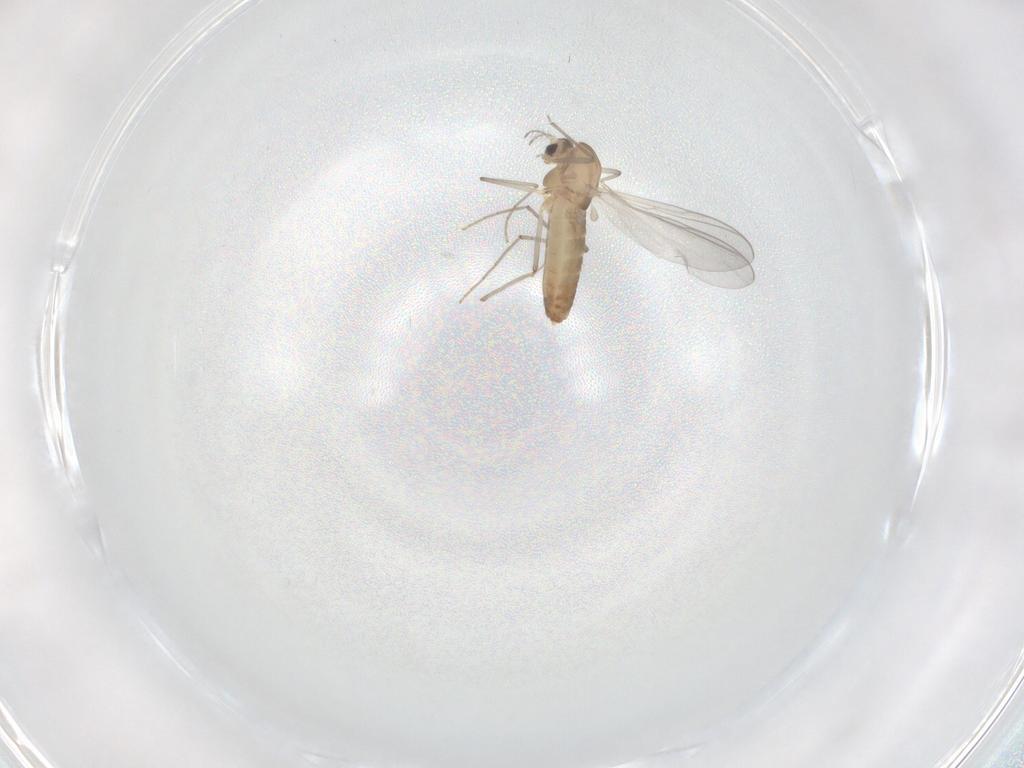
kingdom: Animalia
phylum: Arthropoda
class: Insecta
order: Diptera
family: Chironomidae
